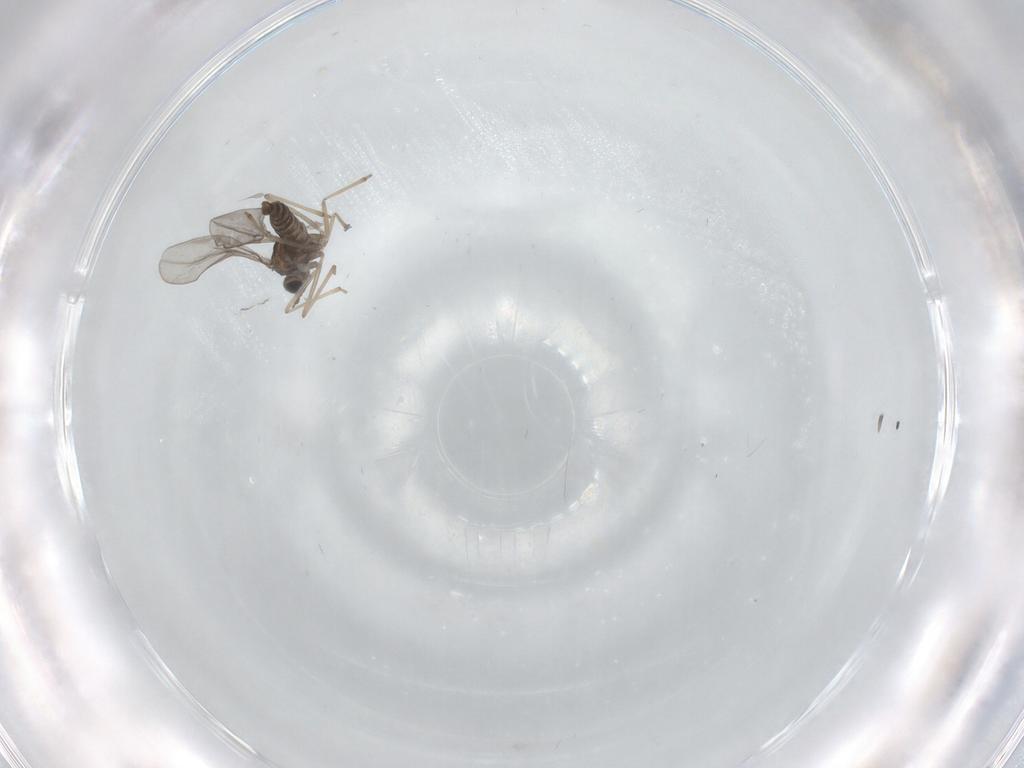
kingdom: Animalia
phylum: Arthropoda
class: Insecta
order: Diptera
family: Cecidomyiidae
